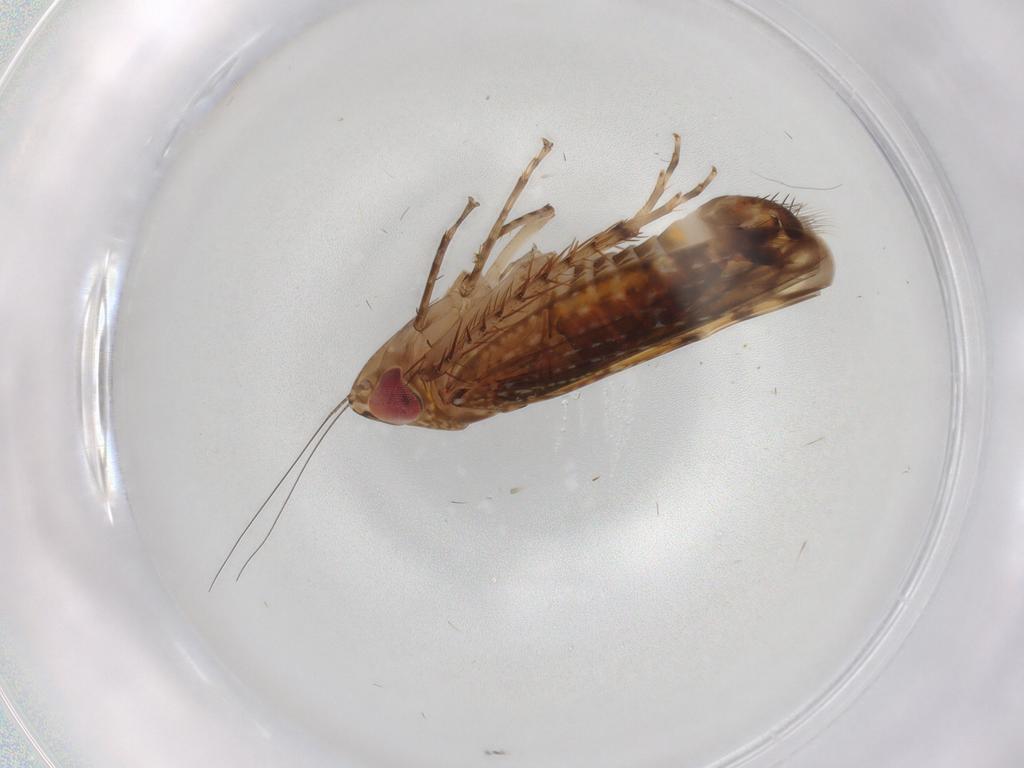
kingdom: Animalia
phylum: Arthropoda
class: Insecta
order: Hemiptera
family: Cicadellidae
